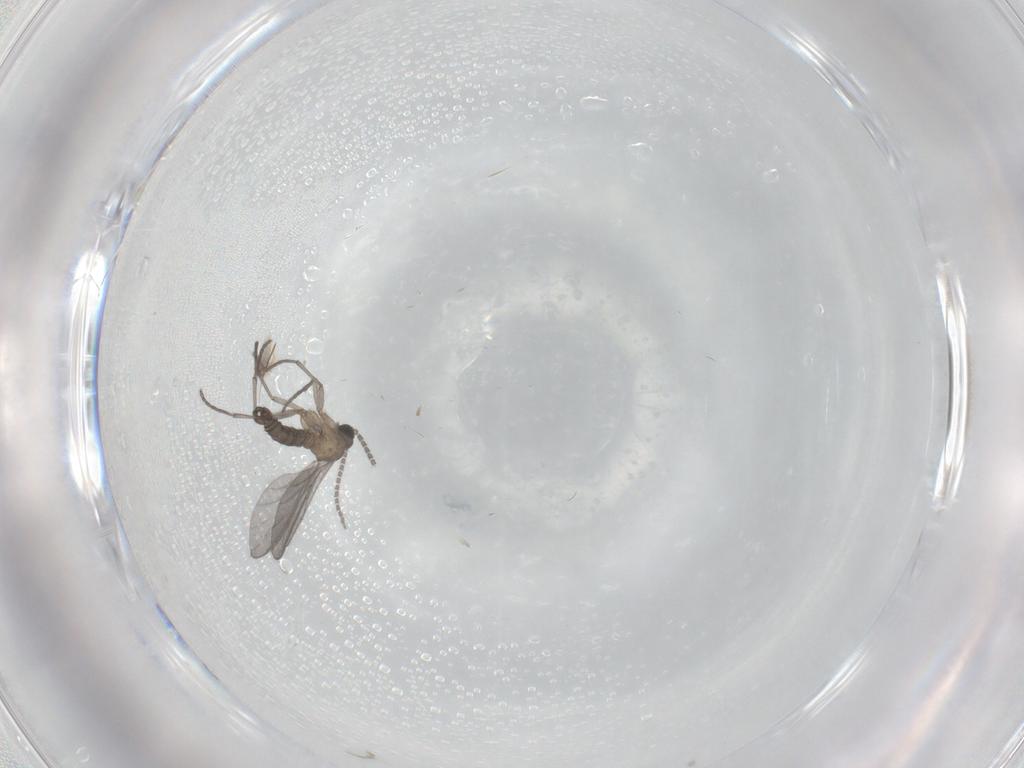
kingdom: Animalia
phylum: Arthropoda
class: Insecta
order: Diptera
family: Sciaridae
